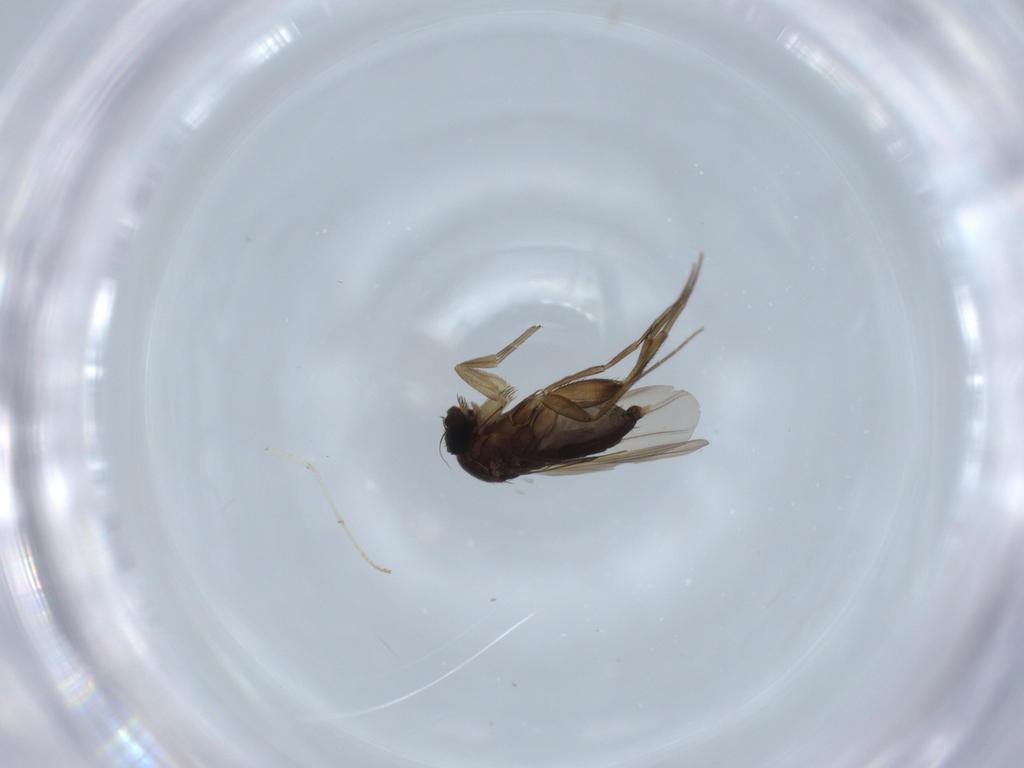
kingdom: Animalia
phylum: Arthropoda
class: Insecta
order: Diptera
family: Phoridae
